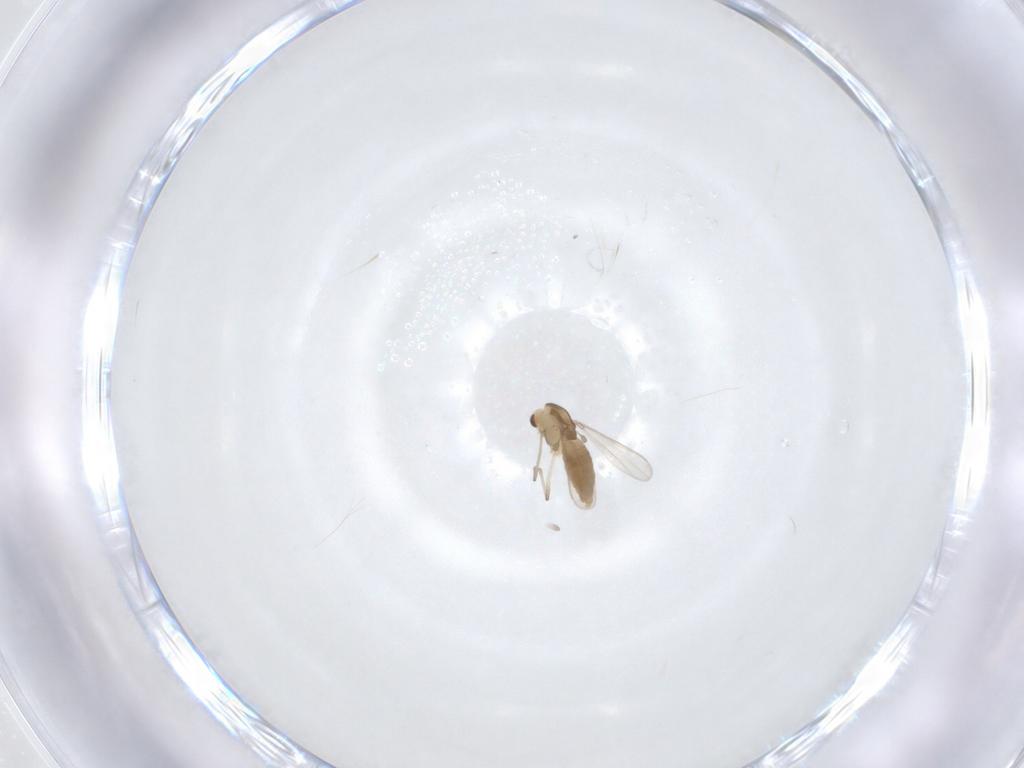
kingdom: Animalia
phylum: Arthropoda
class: Insecta
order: Diptera
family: Chironomidae
